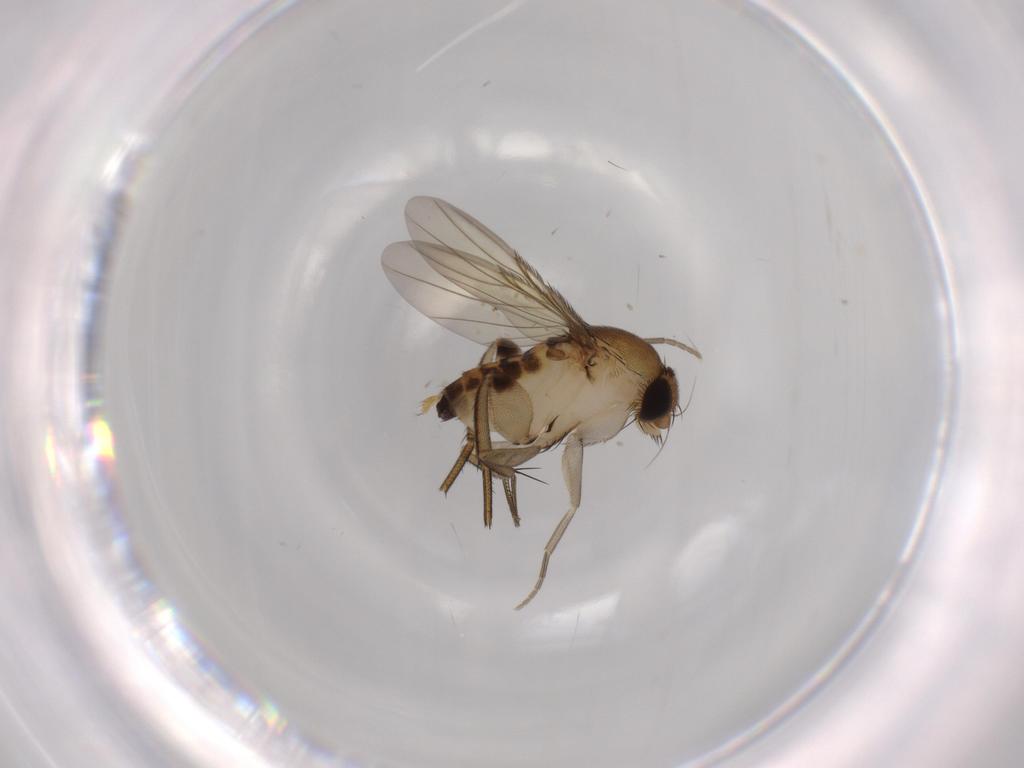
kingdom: Animalia
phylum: Arthropoda
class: Insecta
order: Diptera
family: Phoridae
